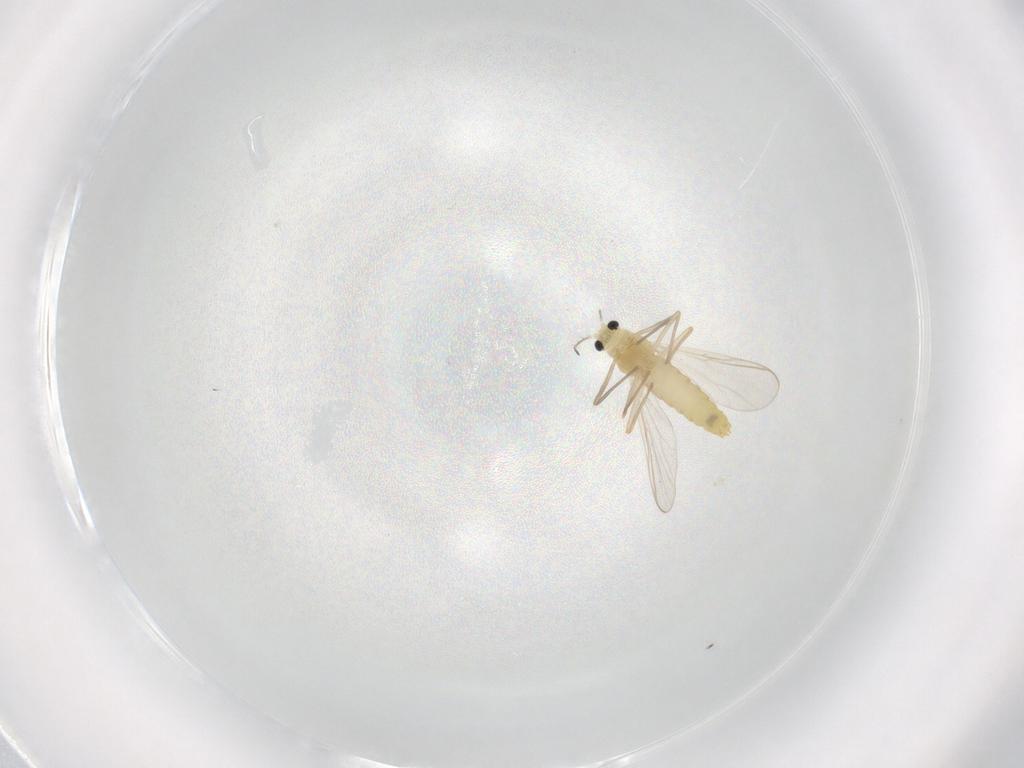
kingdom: Animalia
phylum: Arthropoda
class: Insecta
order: Diptera
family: Chironomidae
